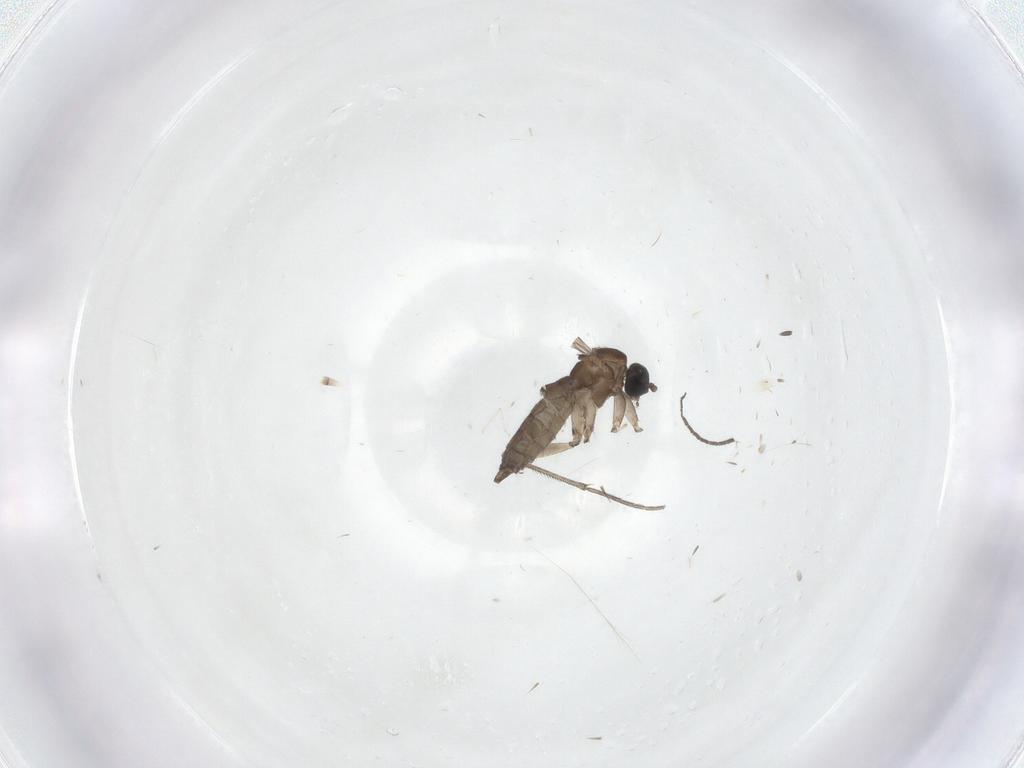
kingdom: Animalia
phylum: Arthropoda
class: Insecta
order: Diptera
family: Sciaridae
